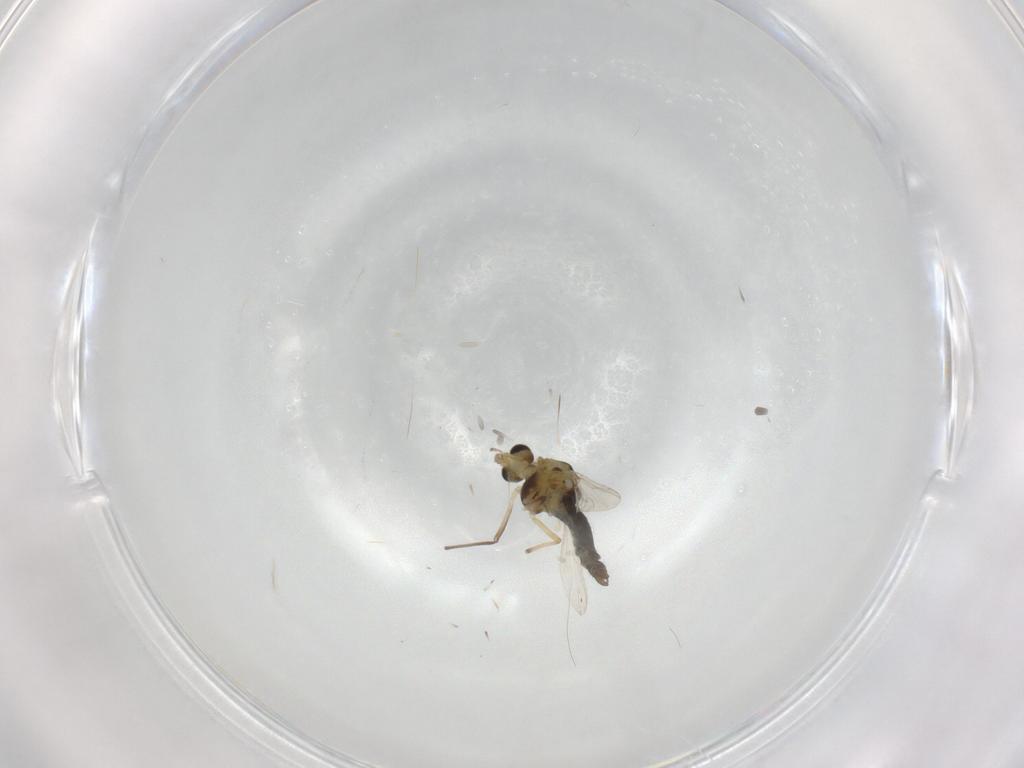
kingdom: Animalia
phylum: Arthropoda
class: Insecta
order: Diptera
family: Chironomidae
